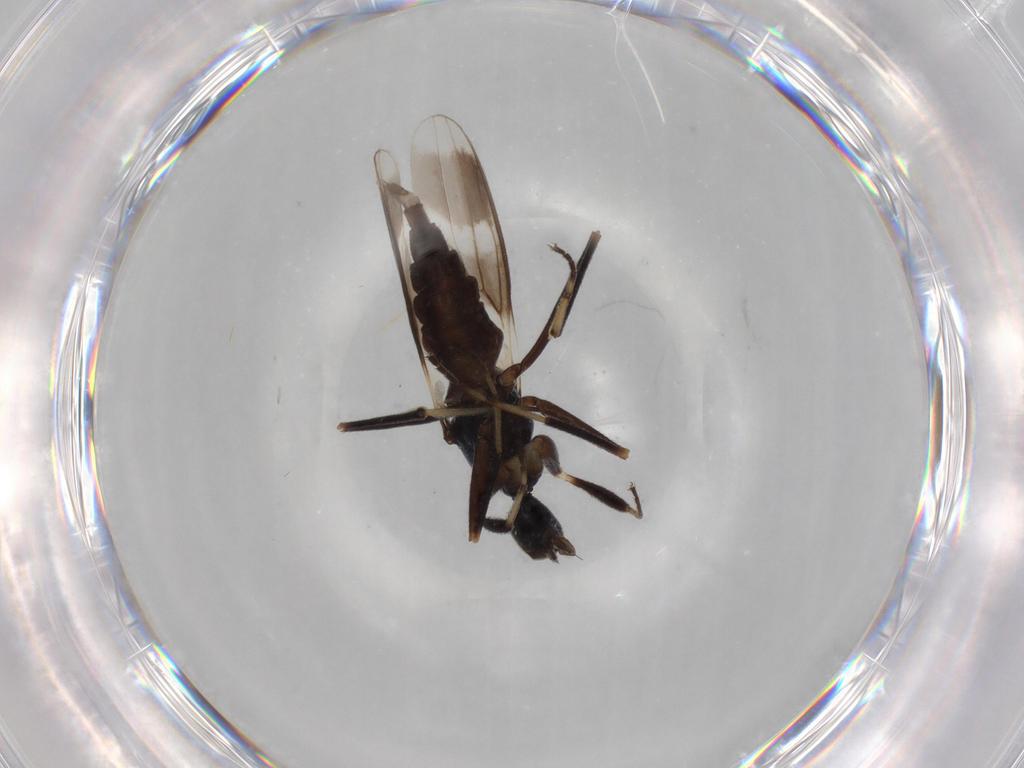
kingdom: Animalia
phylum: Arthropoda
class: Insecta
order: Diptera
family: Hybotidae
